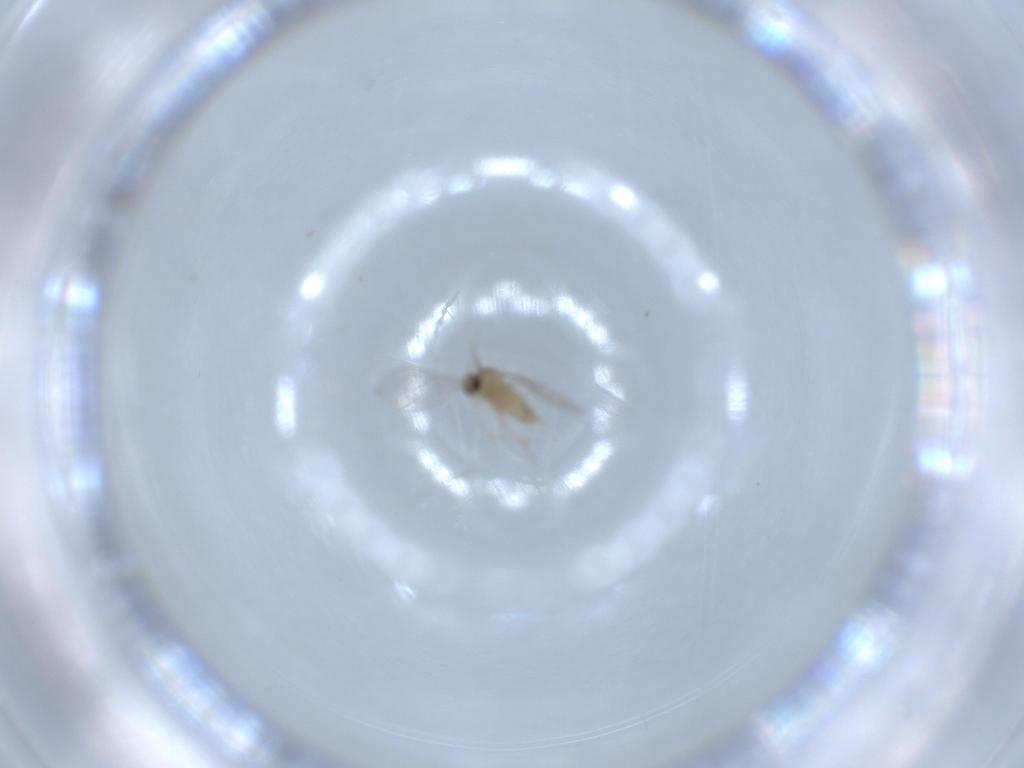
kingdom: Animalia
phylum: Arthropoda
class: Insecta
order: Diptera
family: Cecidomyiidae
